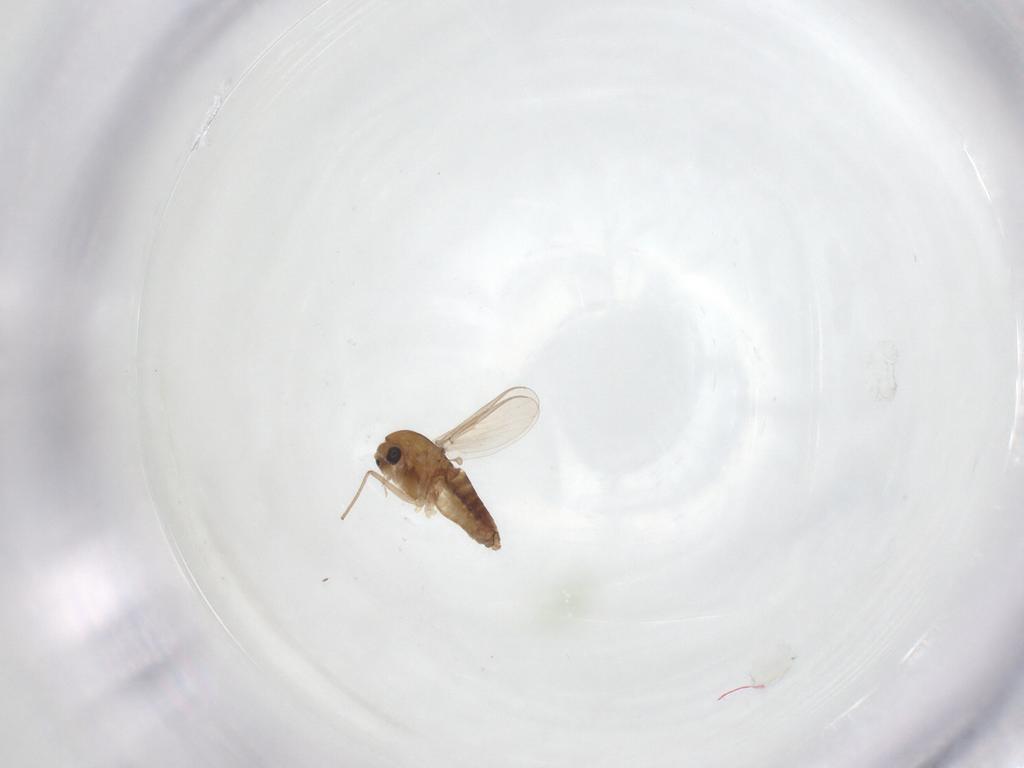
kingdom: Animalia
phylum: Arthropoda
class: Insecta
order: Diptera
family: Chironomidae
